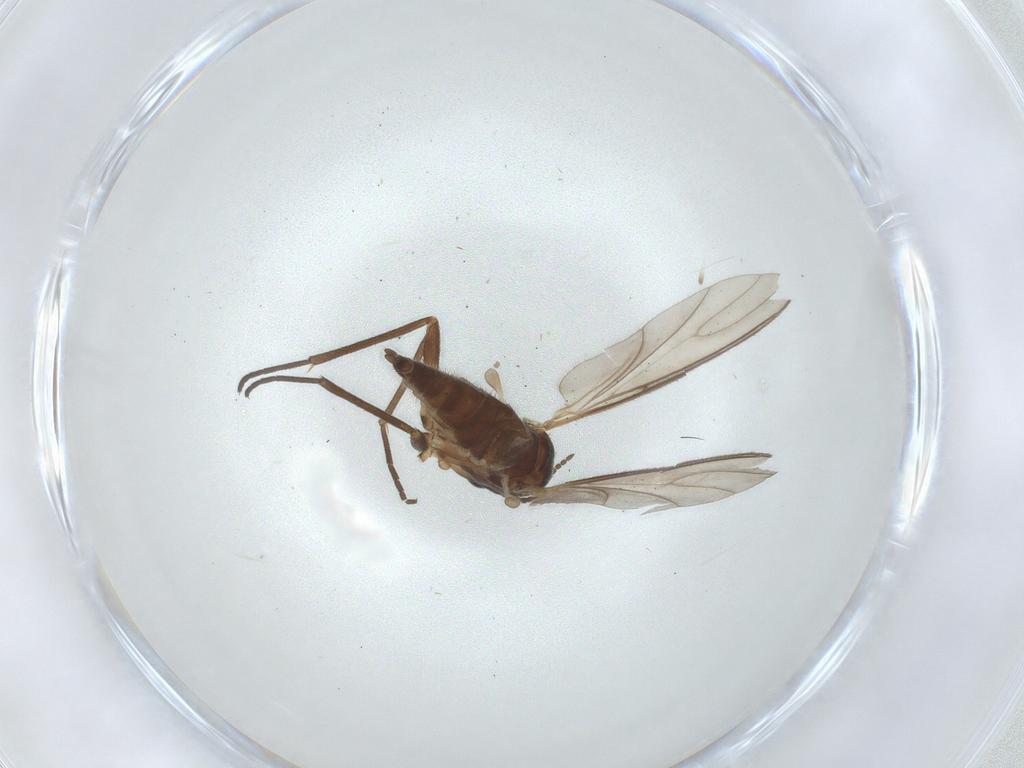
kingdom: Animalia
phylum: Arthropoda
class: Insecta
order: Diptera
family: Sciaridae
